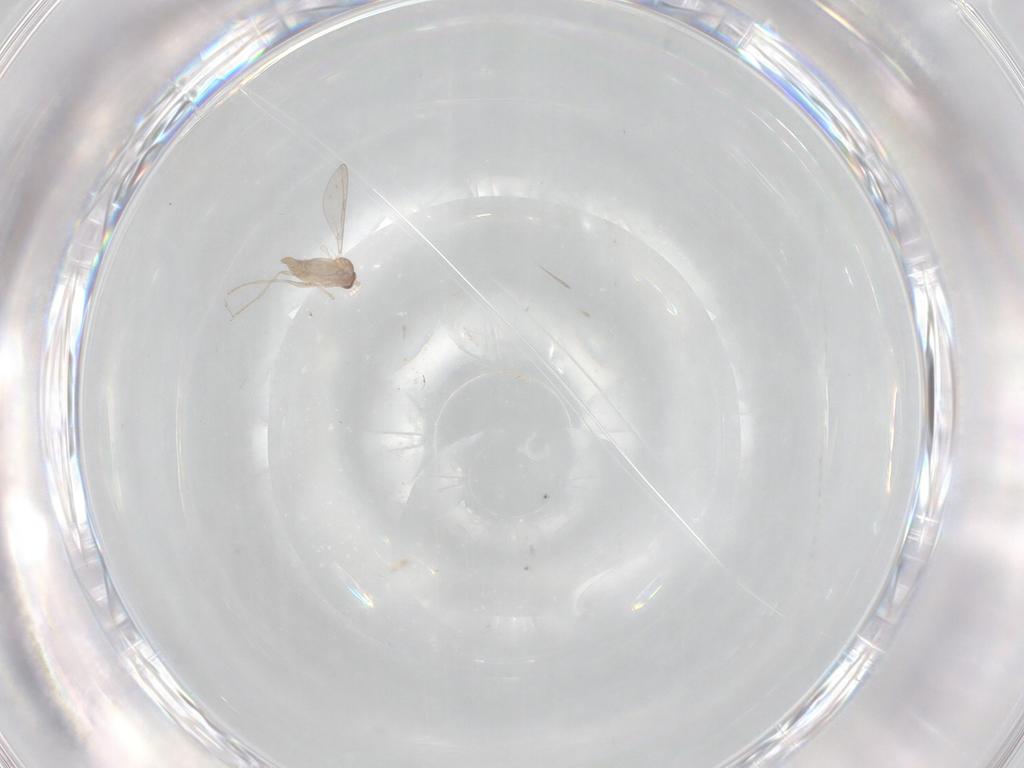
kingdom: Animalia
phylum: Arthropoda
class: Insecta
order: Diptera
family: Cecidomyiidae
